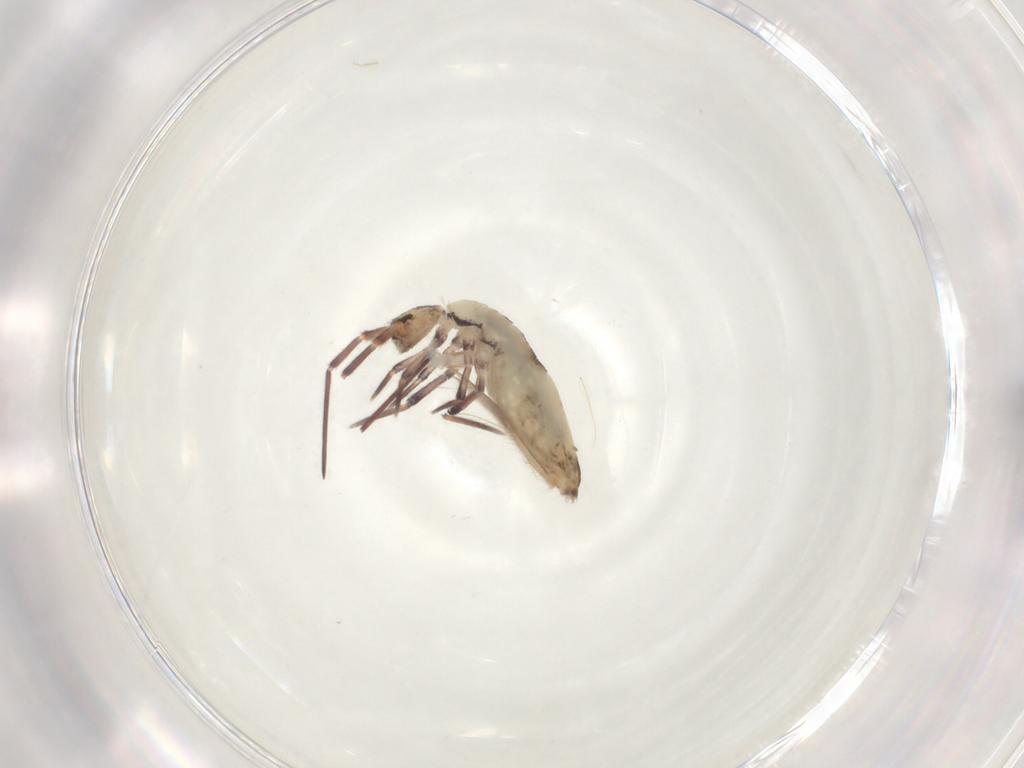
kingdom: Animalia
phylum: Arthropoda
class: Collembola
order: Entomobryomorpha
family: Entomobryidae
